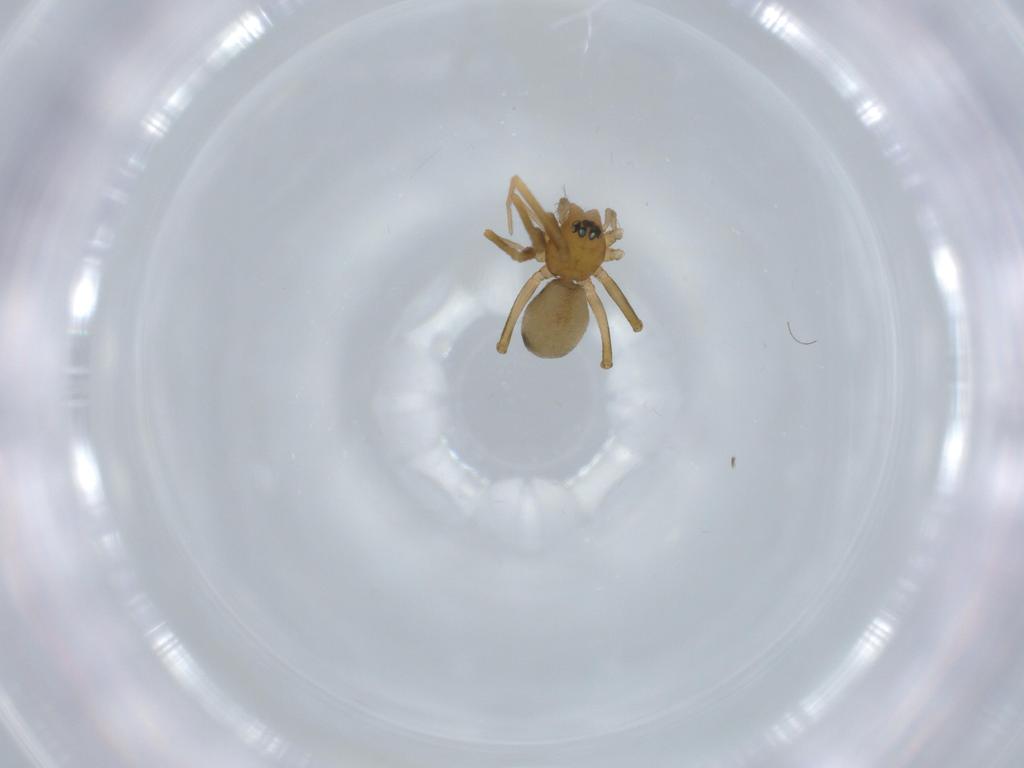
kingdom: Animalia
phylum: Arthropoda
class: Arachnida
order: Araneae
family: Linyphiidae
